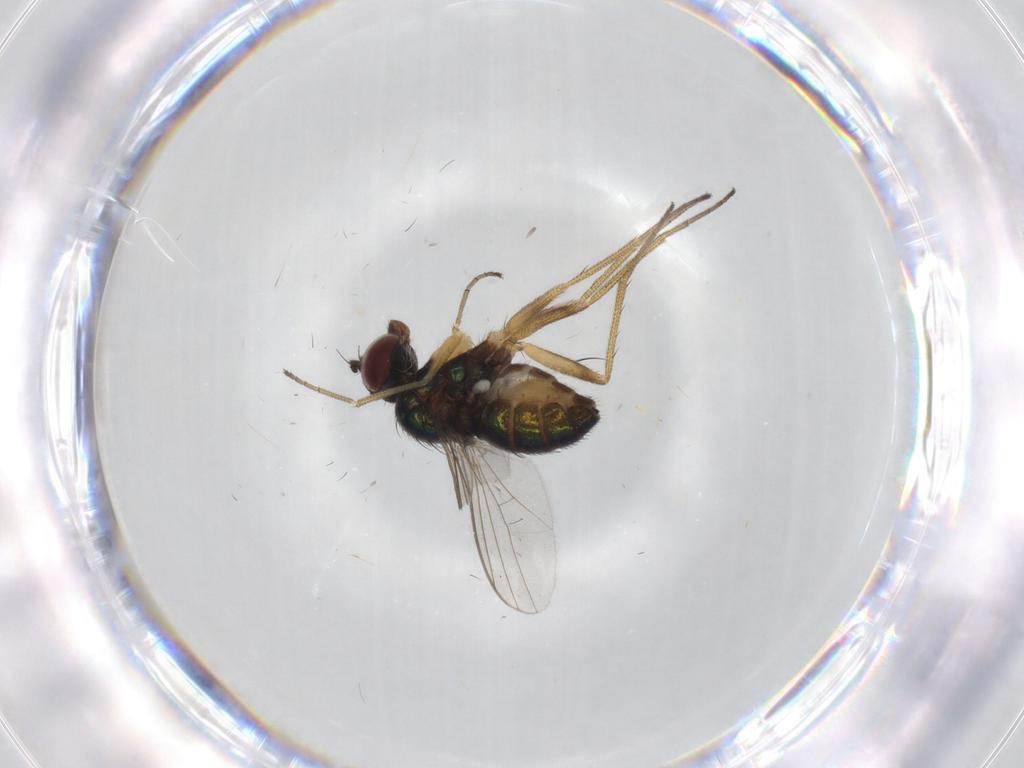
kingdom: Animalia
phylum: Arthropoda
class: Insecta
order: Diptera
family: Dolichopodidae
